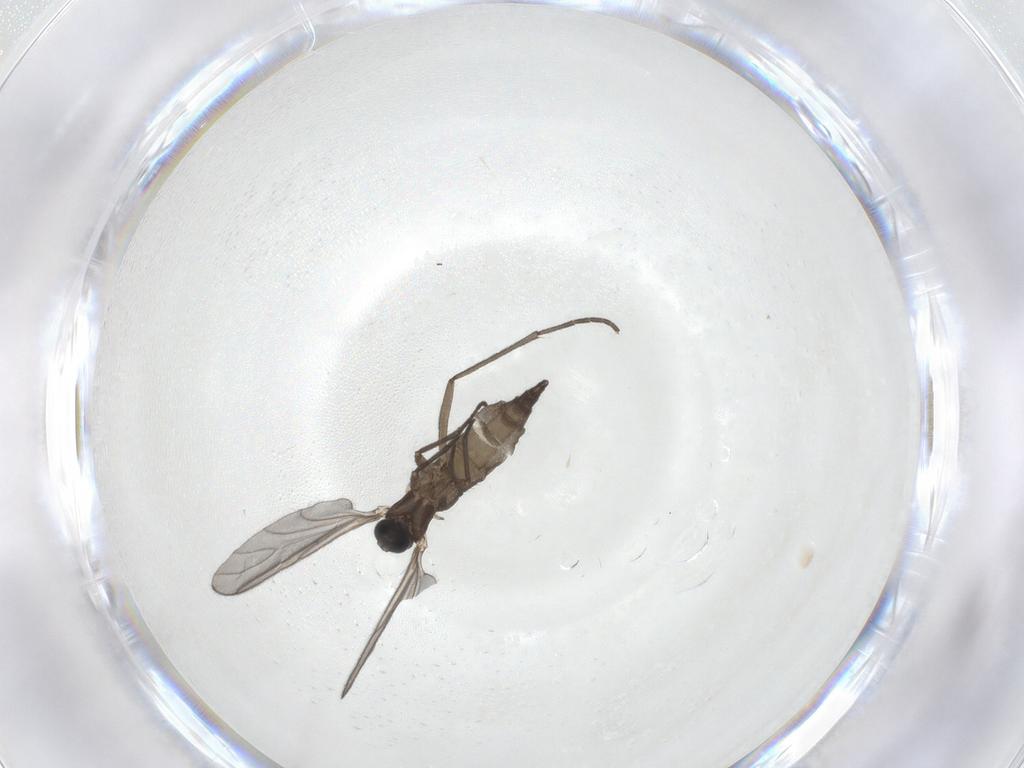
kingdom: Animalia
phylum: Arthropoda
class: Insecta
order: Diptera
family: Sciaridae
